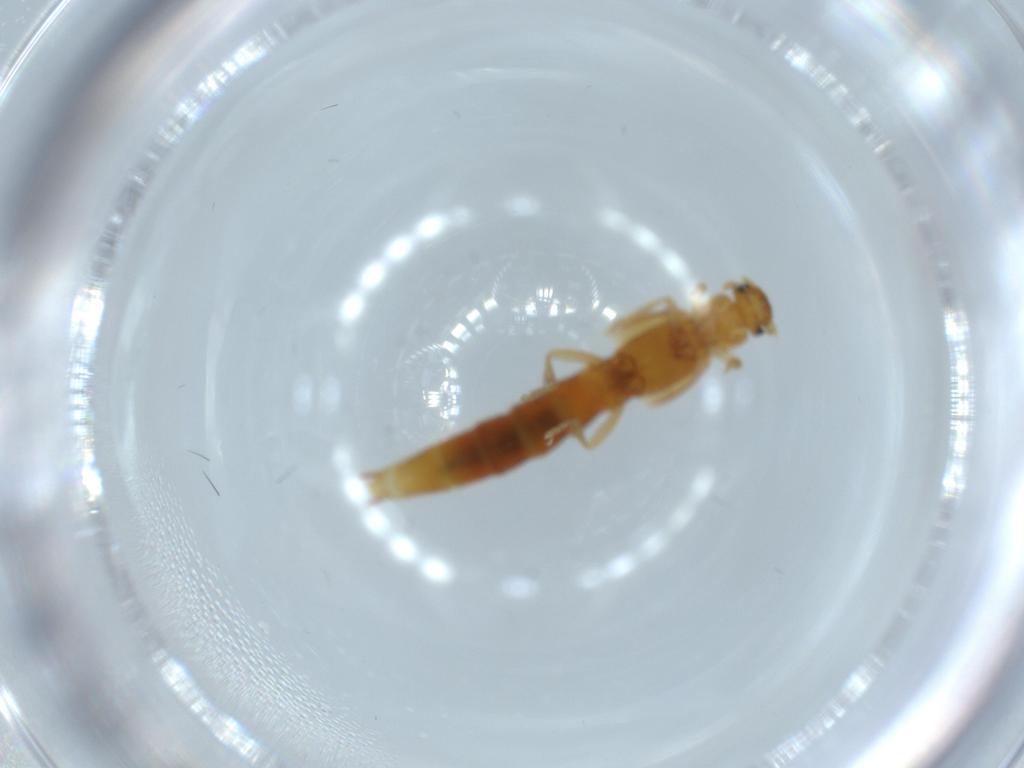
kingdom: Animalia
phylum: Arthropoda
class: Insecta
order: Coleoptera
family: Staphylinidae
